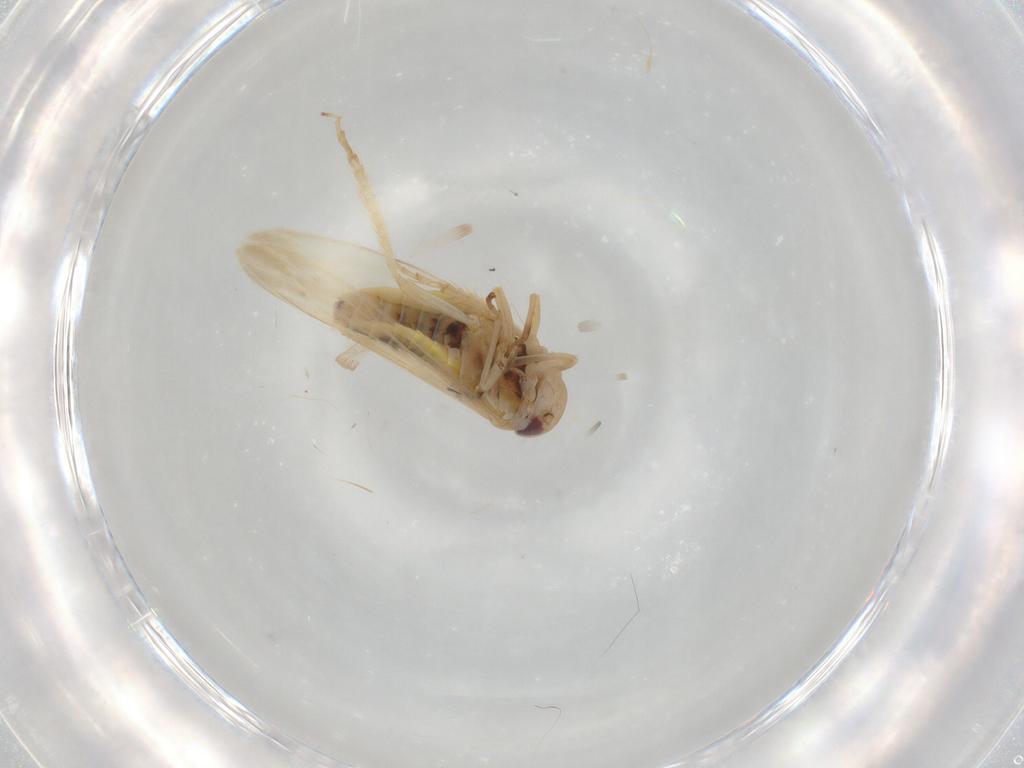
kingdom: Animalia
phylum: Arthropoda
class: Insecta
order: Hemiptera
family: Cicadellidae
